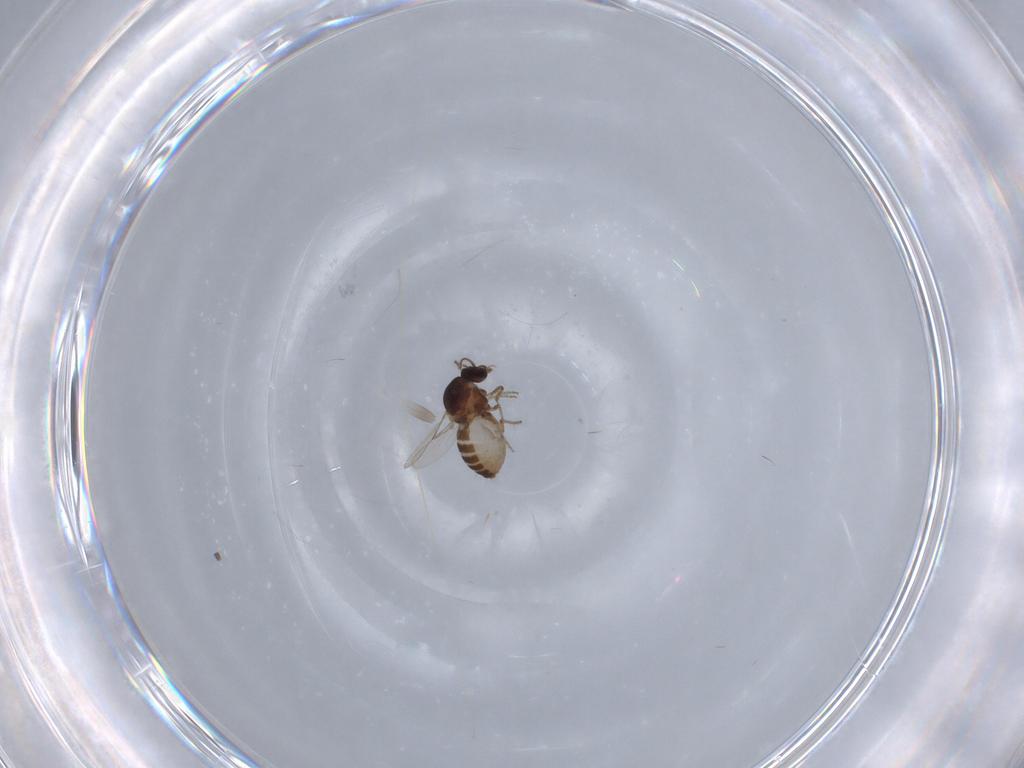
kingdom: Animalia
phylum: Arthropoda
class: Insecta
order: Diptera
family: Ceratopogonidae
